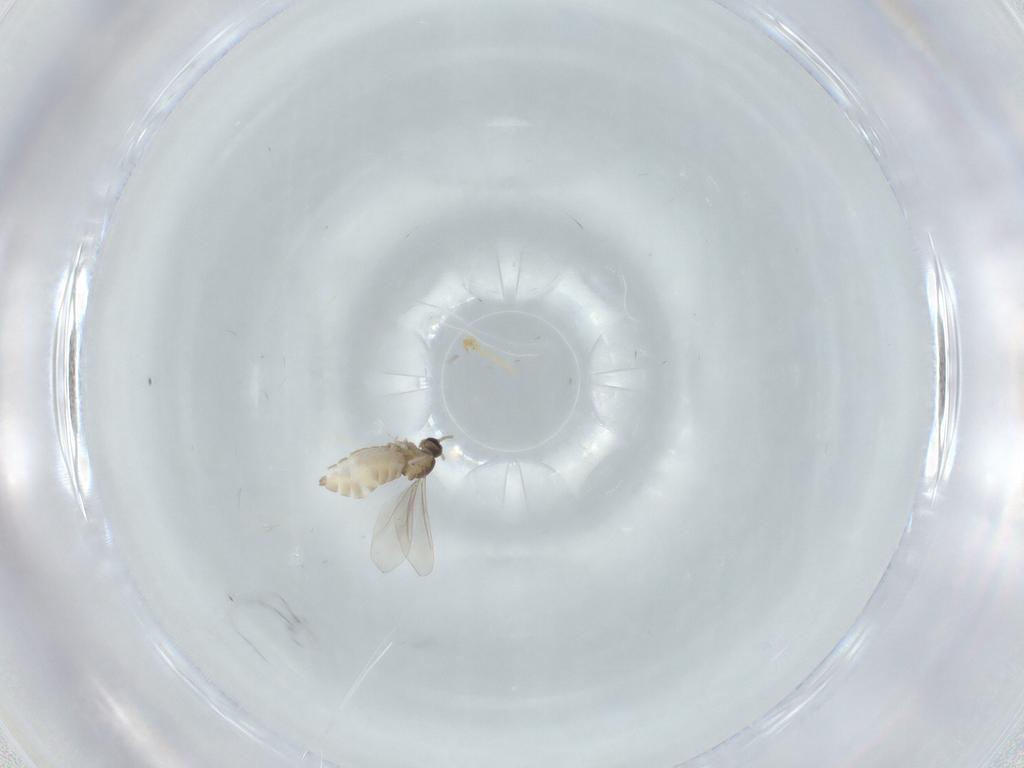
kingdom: Animalia
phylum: Arthropoda
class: Insecta
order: Diptera
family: Cecidomyiidae
